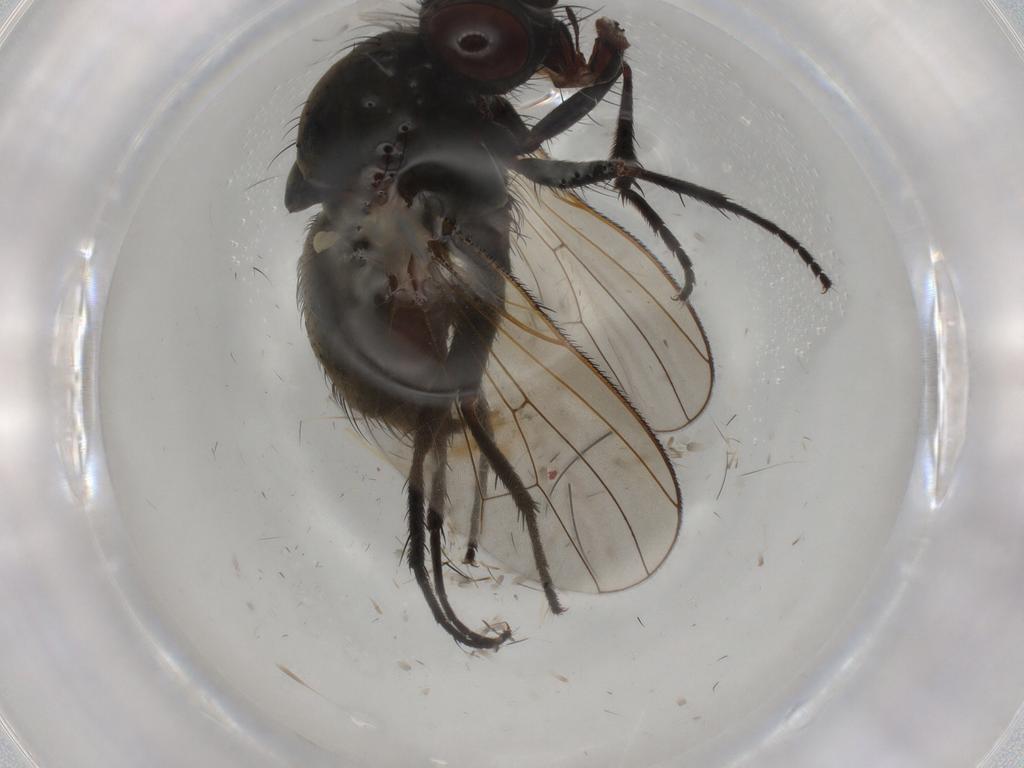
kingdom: Animalia
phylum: Arthropoda
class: Insecta
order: Diptera
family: Anthomyiidae
